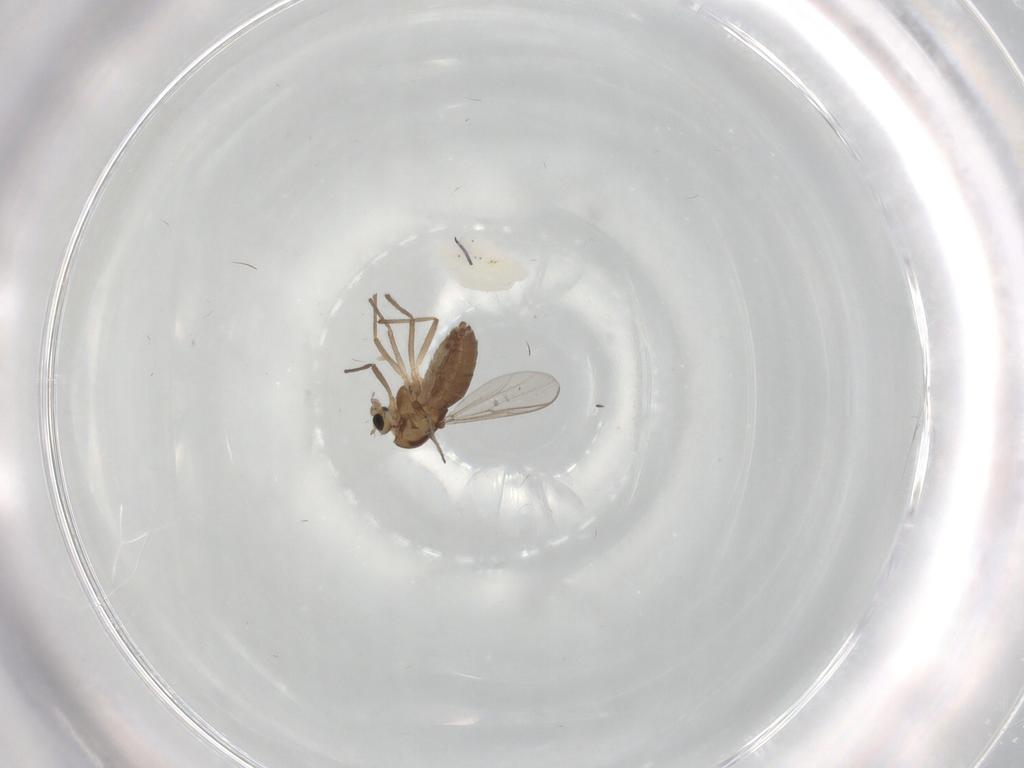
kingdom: Animalia
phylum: Arthropoda
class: Insecta
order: Diptera
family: Chironomidae
